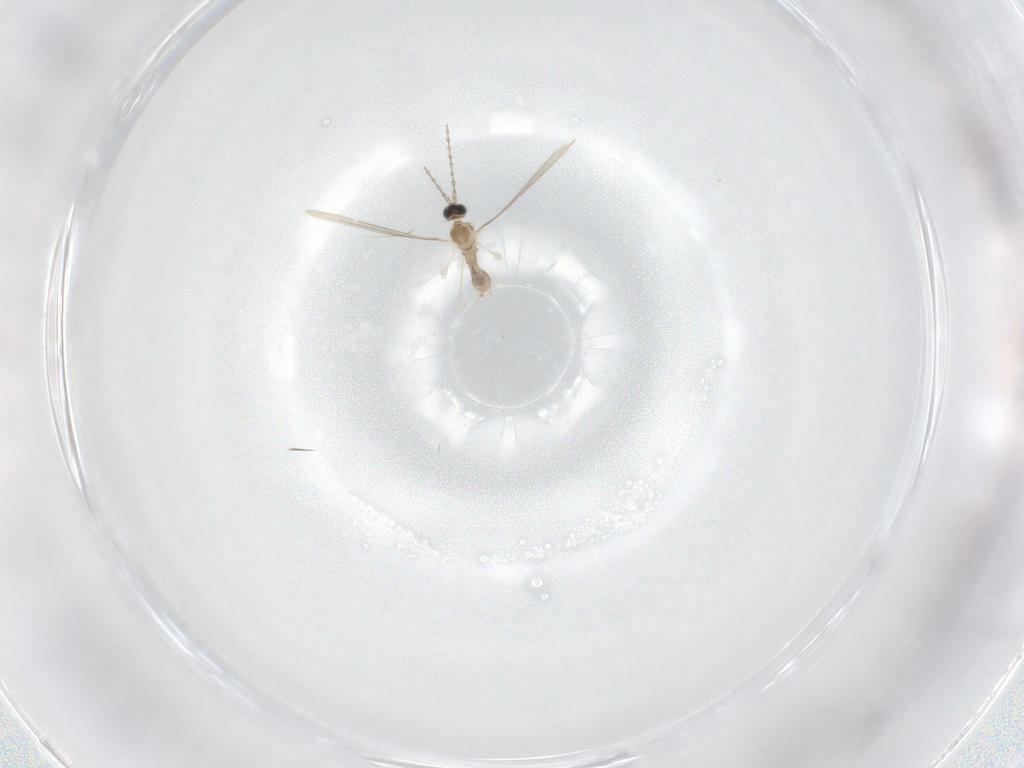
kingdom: Animalia
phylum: Arthropoda
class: Insecta
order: Diptera
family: Cecidomyiidae
